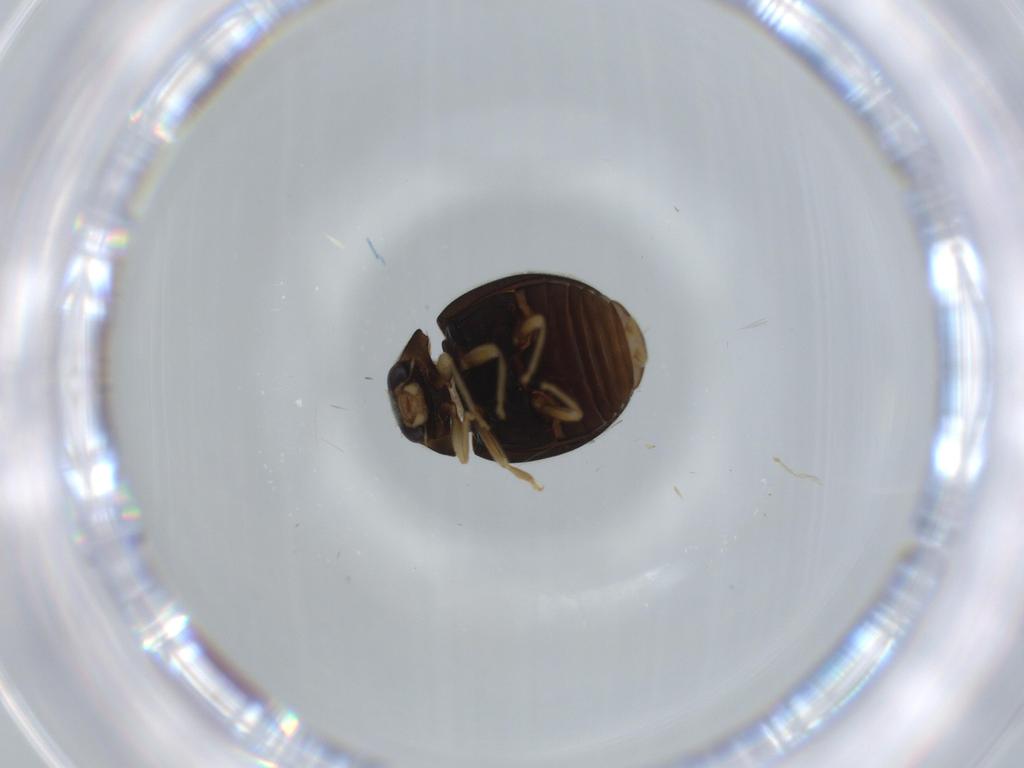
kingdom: Animalia
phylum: Arthropoda
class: Insecta
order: Coleoptera
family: Coccinellidae
